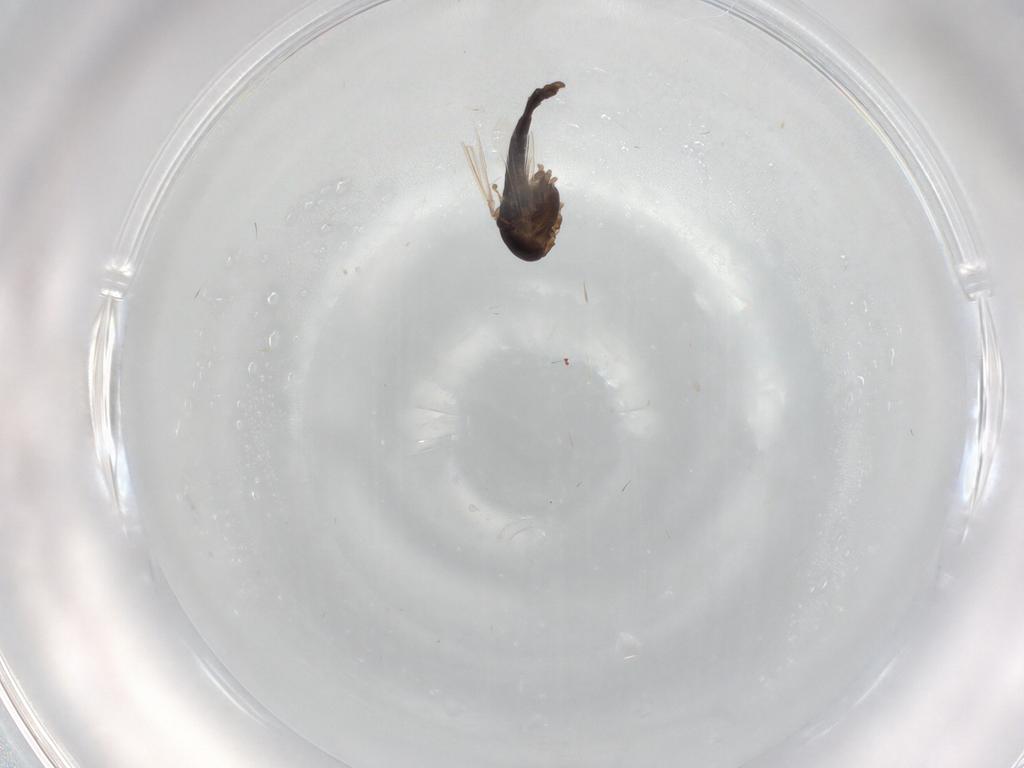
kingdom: Animalia
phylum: Arthropoda
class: Insecta
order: Diptera
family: Chironomidae
